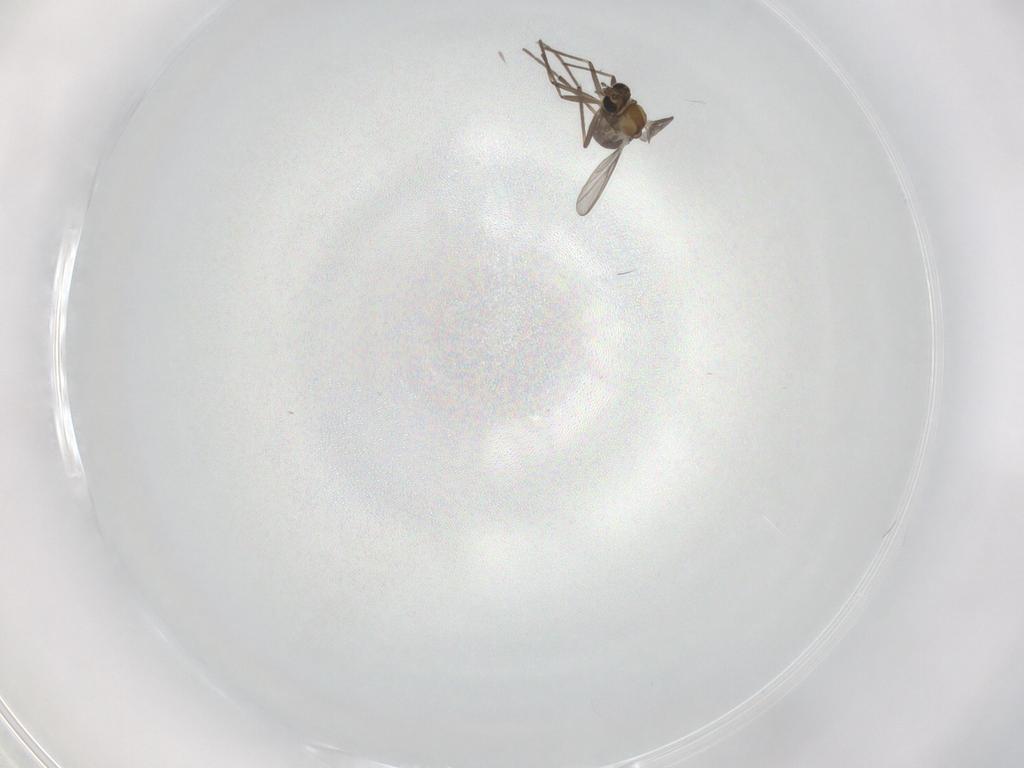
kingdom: Animalia
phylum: Arthropoda
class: Insecta
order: Diptera
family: Chironomidae
